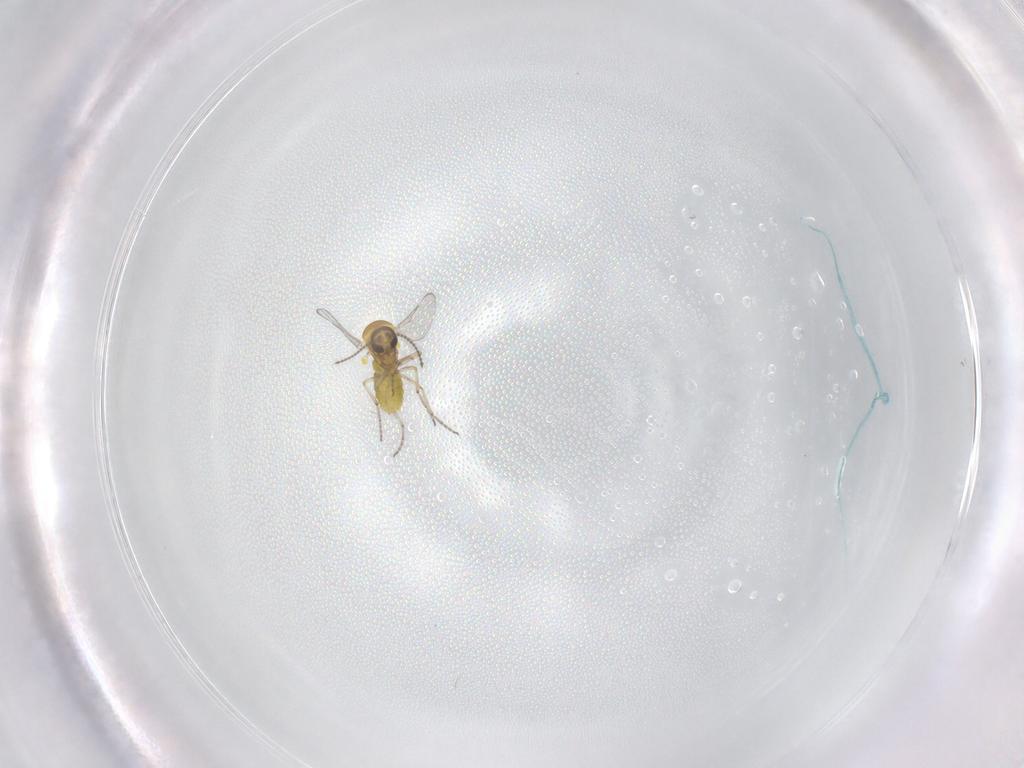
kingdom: Animalia
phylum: Arthropoda
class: Insecta
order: Diptera
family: Ceratopogonidae
